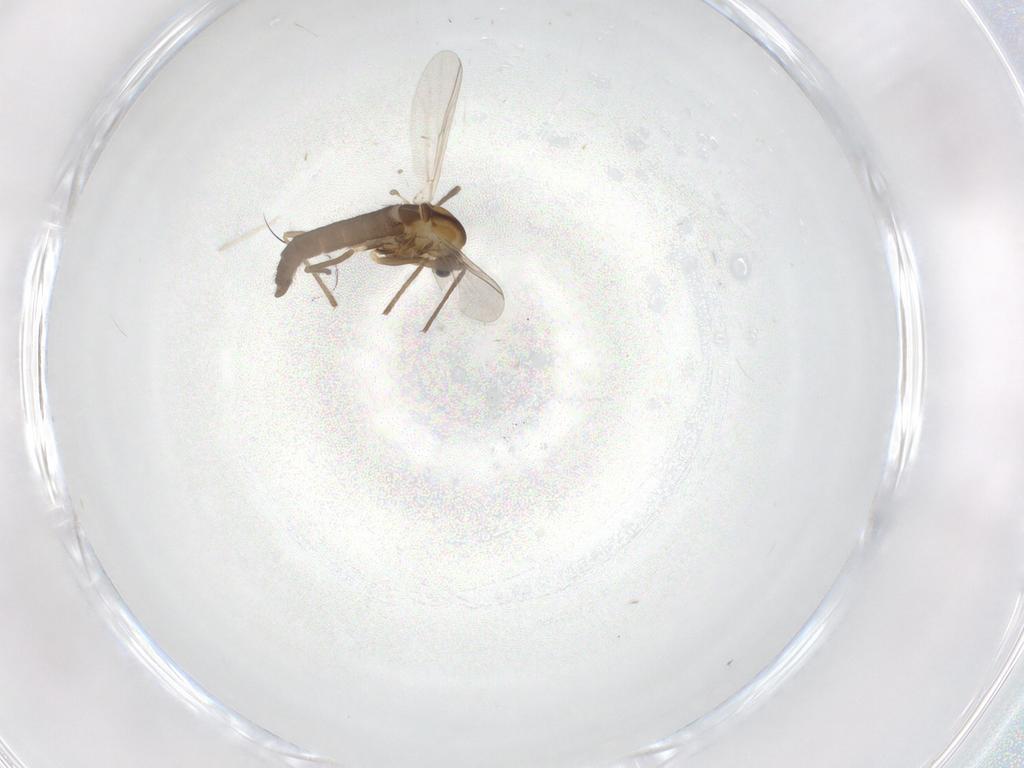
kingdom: Animalia
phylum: Arthropoda
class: Insecta
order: Diptera
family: Chironomidae
